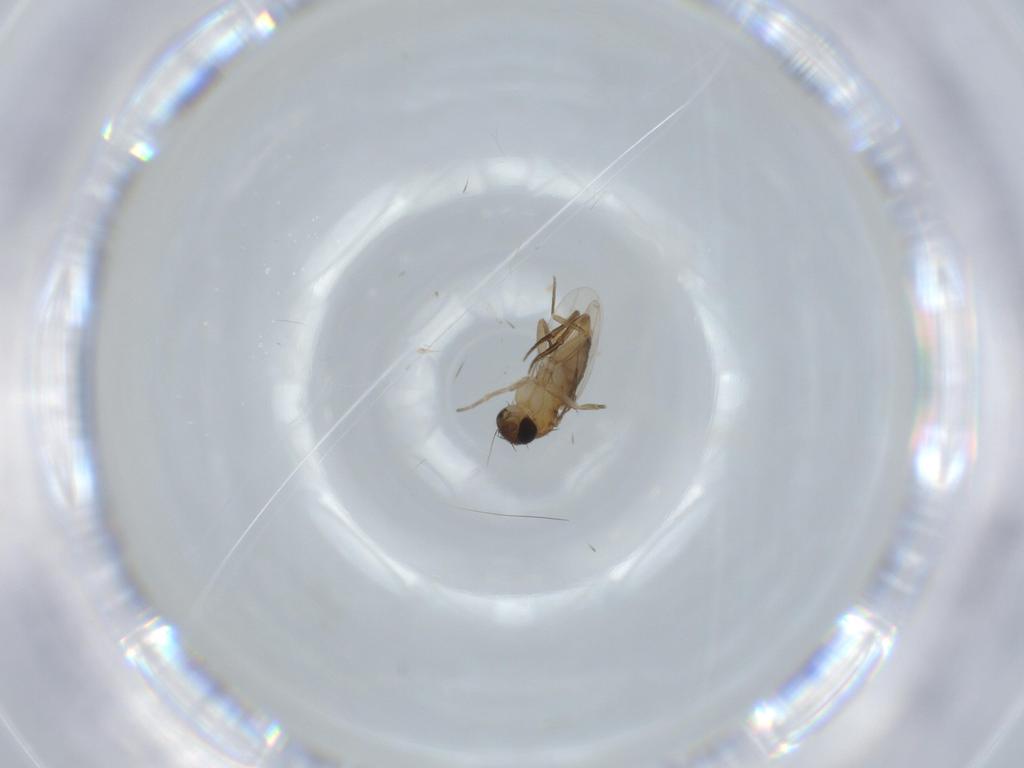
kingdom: Animalia
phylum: Arthropoda
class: Insecta
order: Diptera
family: Phoridae
